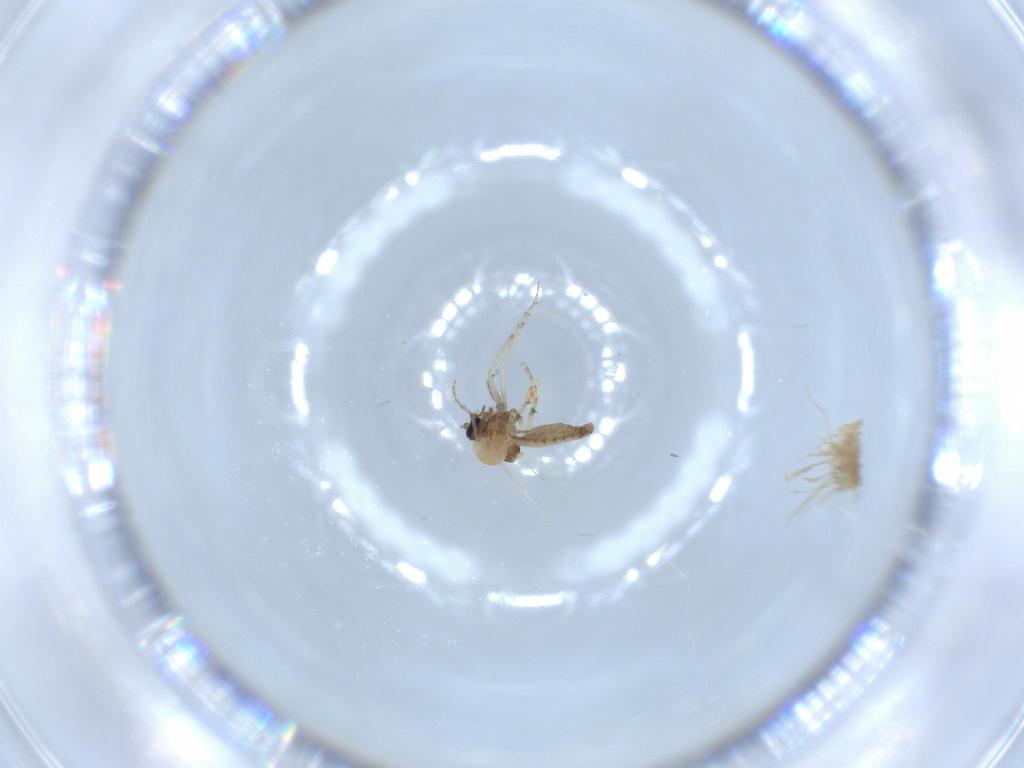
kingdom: Animalia
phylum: Arthropoda
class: Insecta
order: Diptera
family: Ceratopogonidae
